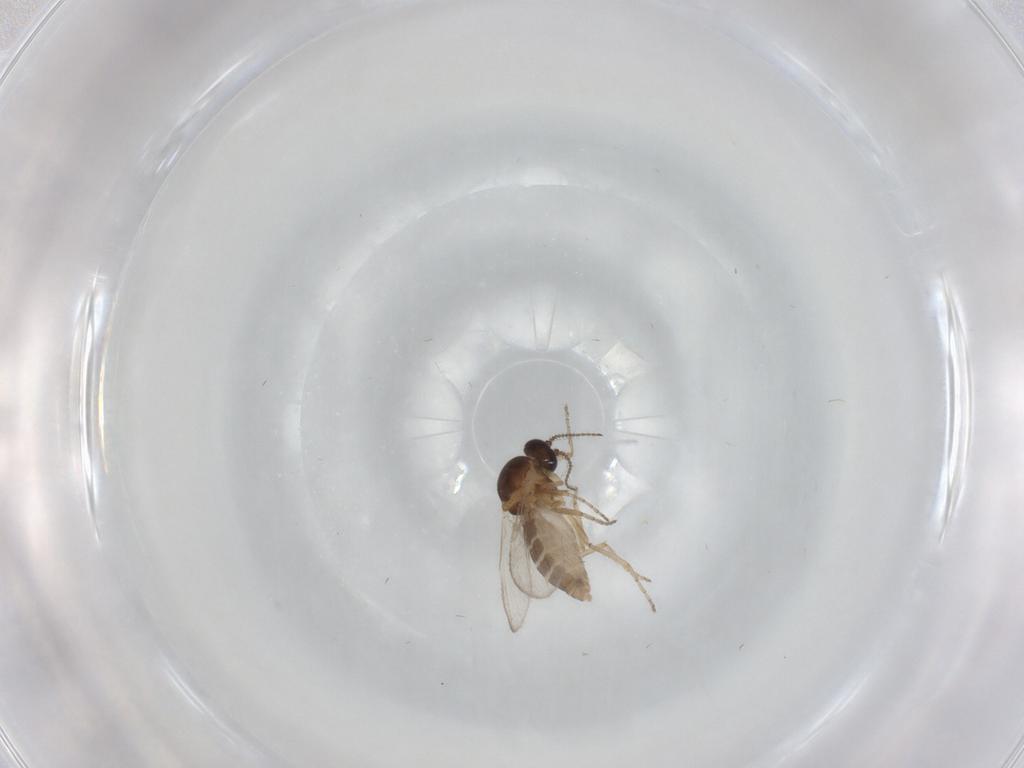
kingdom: Animalia
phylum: Arthropoda
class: Insecta
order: Diptera
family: Ceratopogonidae
